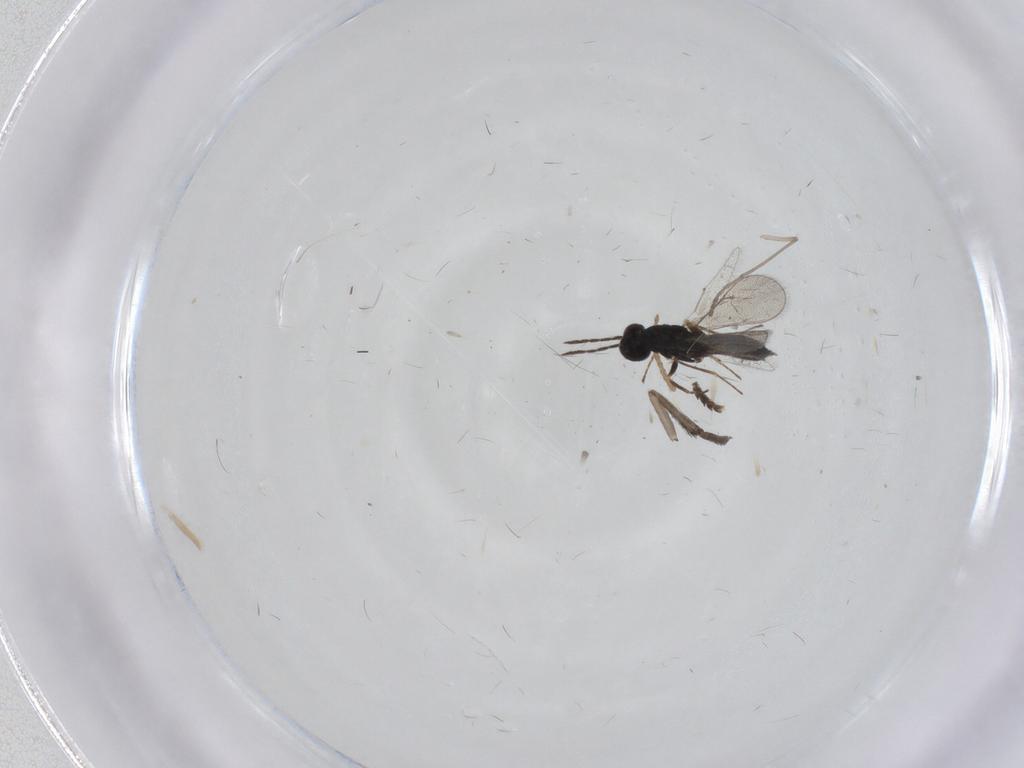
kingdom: Animalia
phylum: Arthropoda
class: Insecta
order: Hymenoptera
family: Eulophidae
